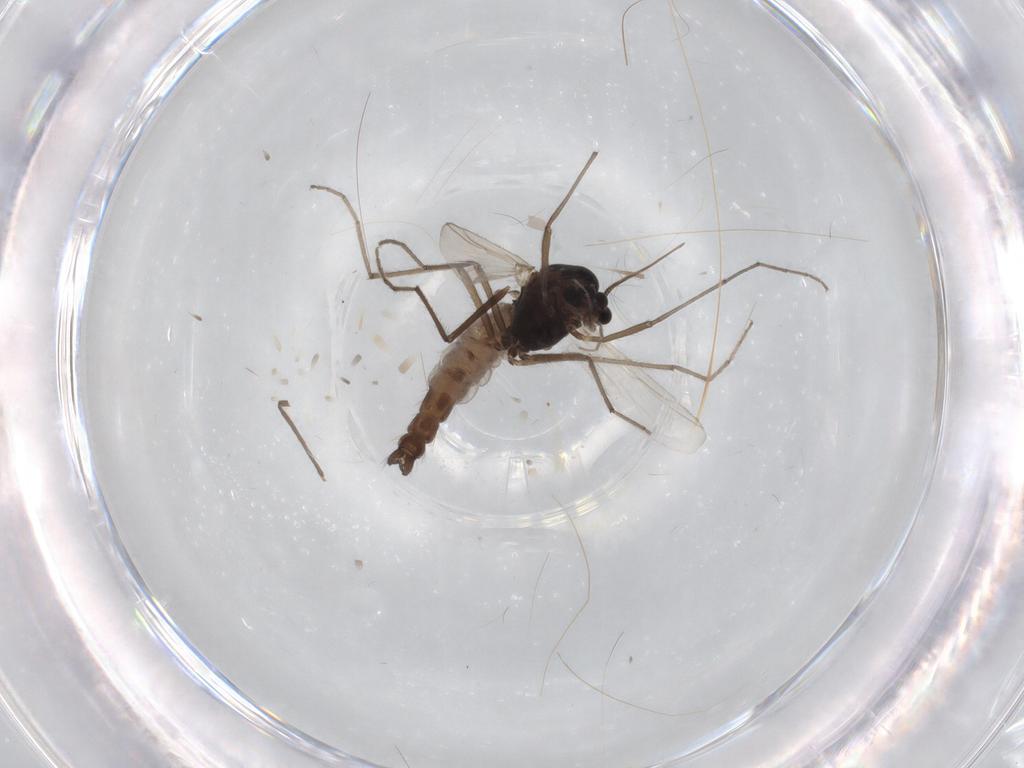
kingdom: Animalia
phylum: Arthropoda
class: Insecta
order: Diptera
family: Chironomidae
